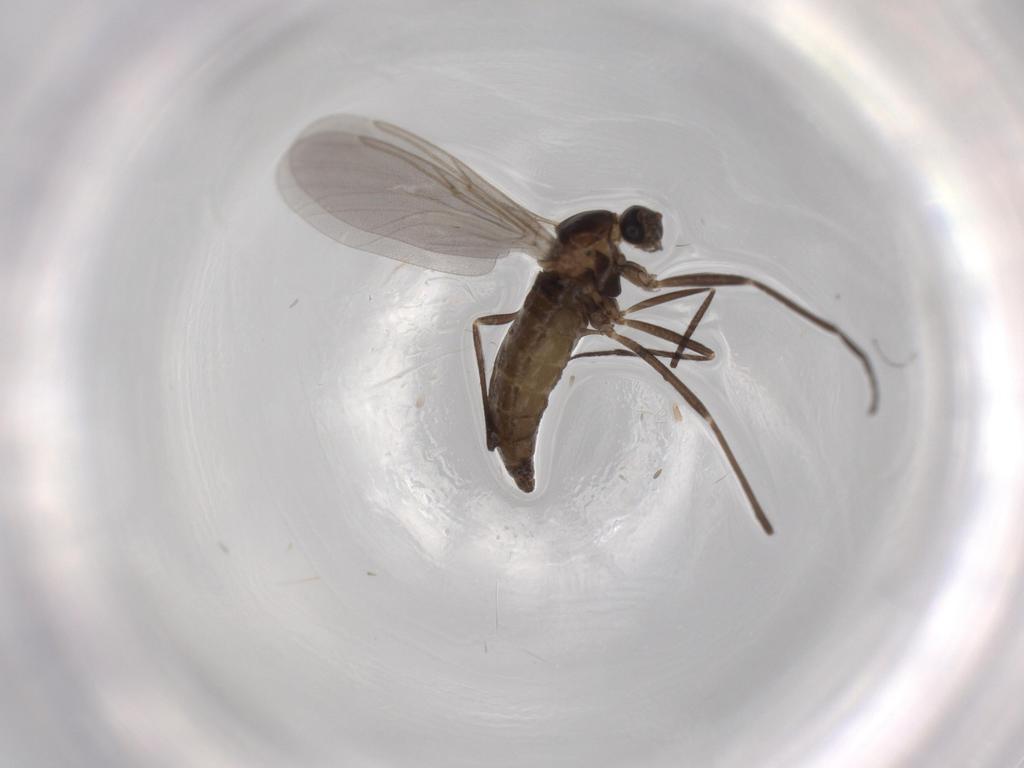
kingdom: Animalia
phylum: Arthropoda
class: Insecta
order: Diptera
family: Cecidomyiidae
